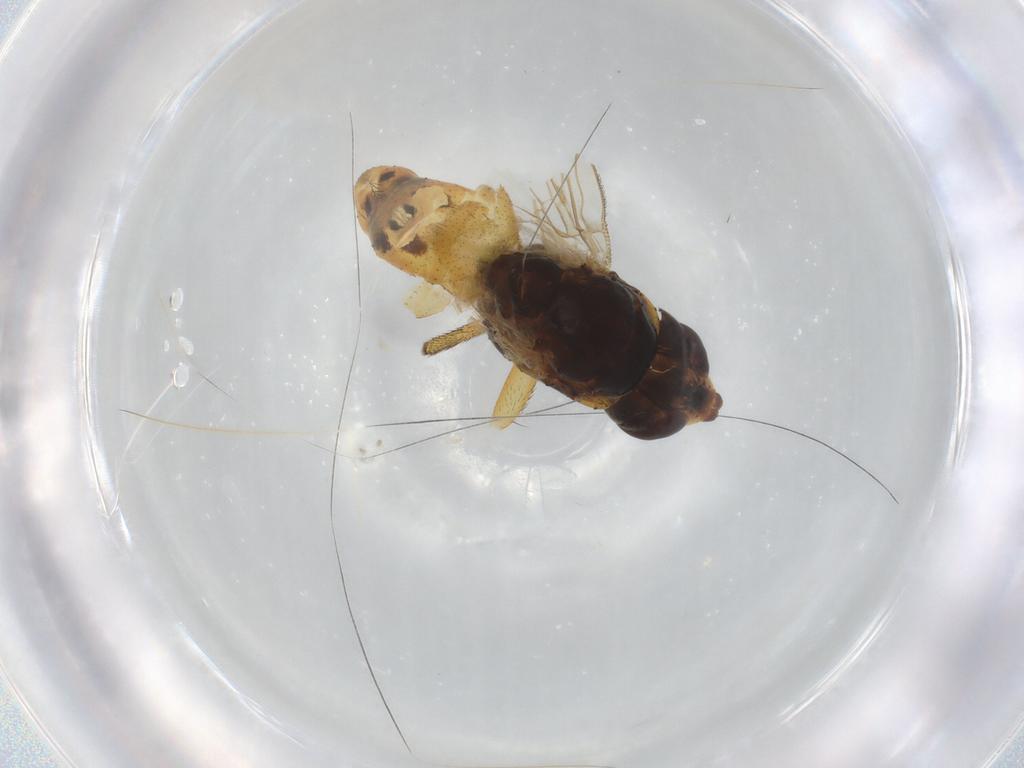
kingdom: Animalia
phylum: Arthropoda
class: Insecta
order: Diptera
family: Muscidae
